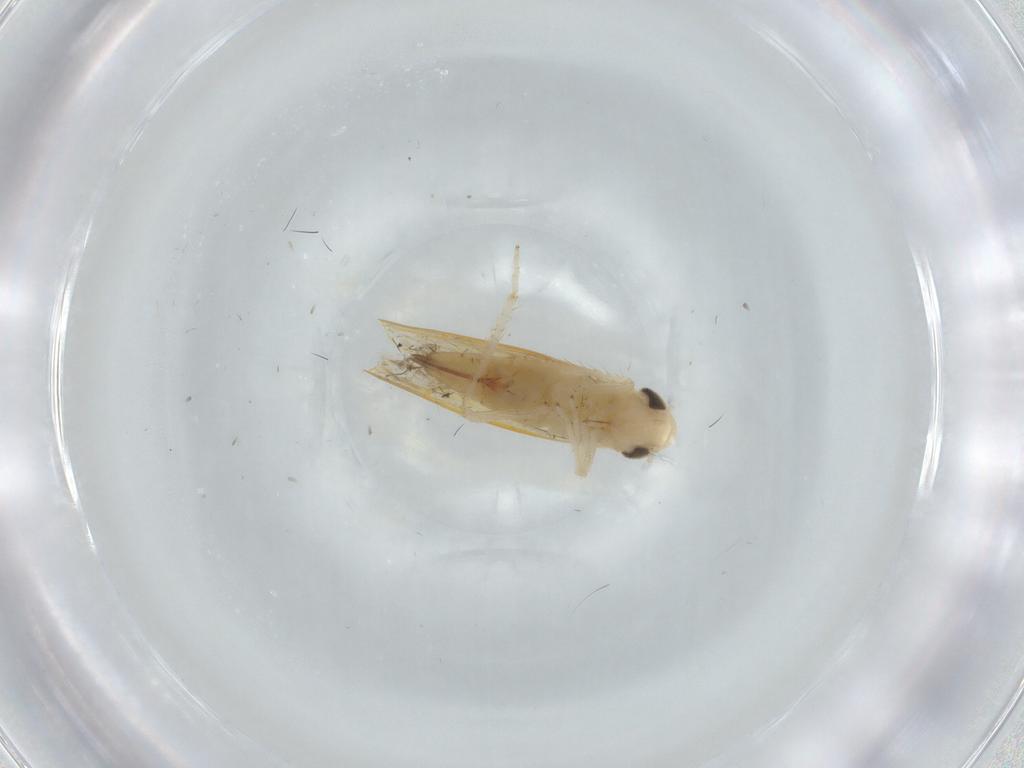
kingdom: Animalia
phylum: Arthropoda
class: Insecta
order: Hemiptera
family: Cicadellidae
